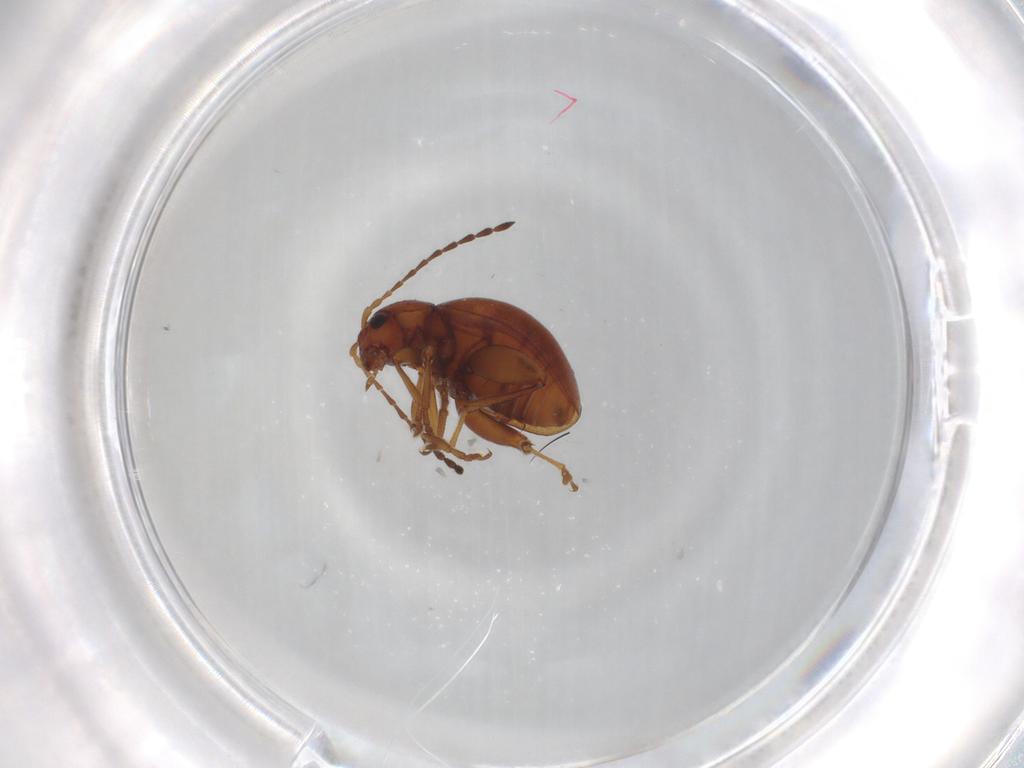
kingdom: Animalia
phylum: Arthropoda
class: Insecta
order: Coleoptera
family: Chrysomelidae
